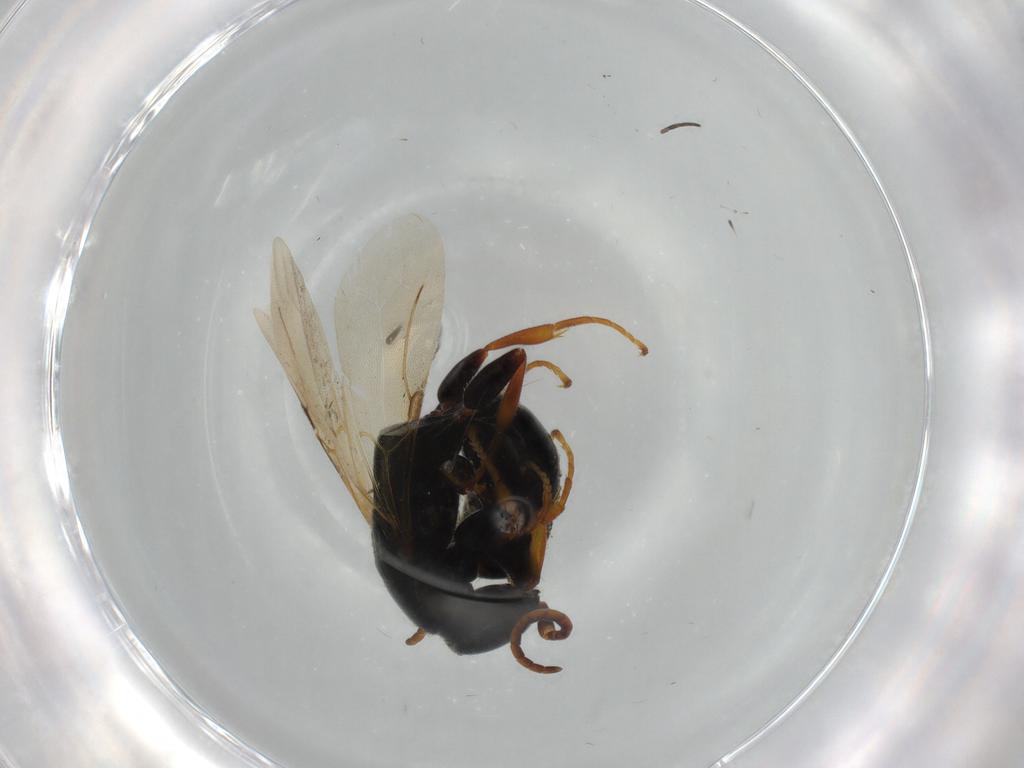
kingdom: Animalia
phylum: Arthropoda
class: Insecta
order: Hymenoptera
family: Bethylidae
